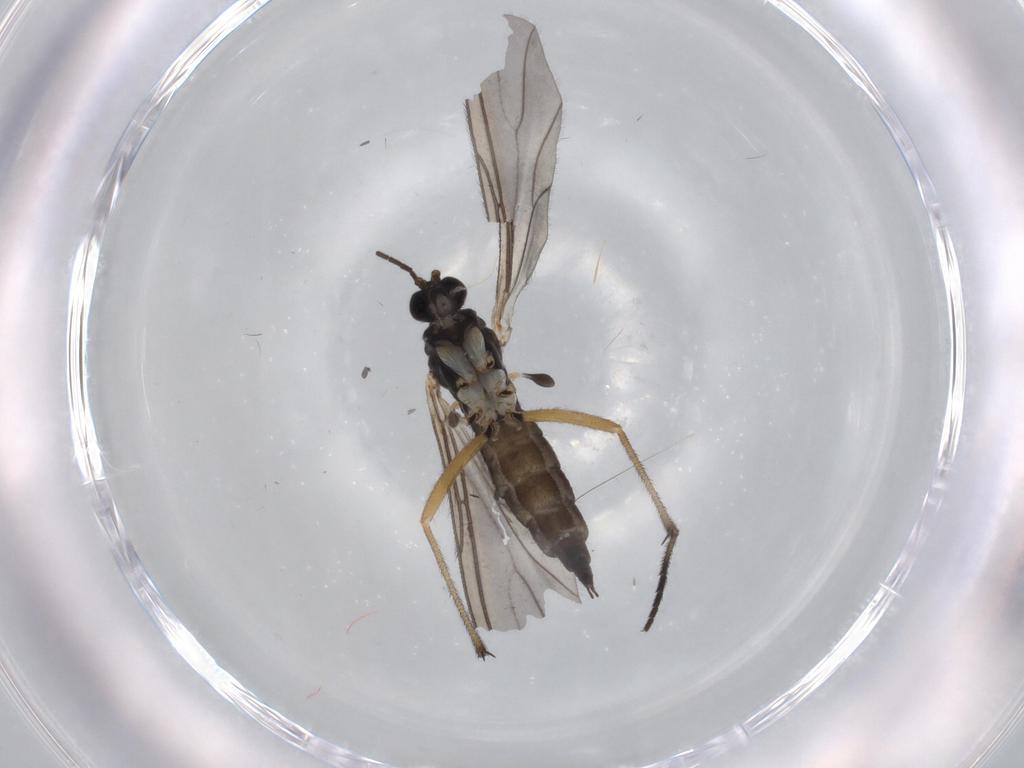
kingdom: Animalia
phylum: Arthropoda
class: Insecta
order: Diptera
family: Sciaridae
